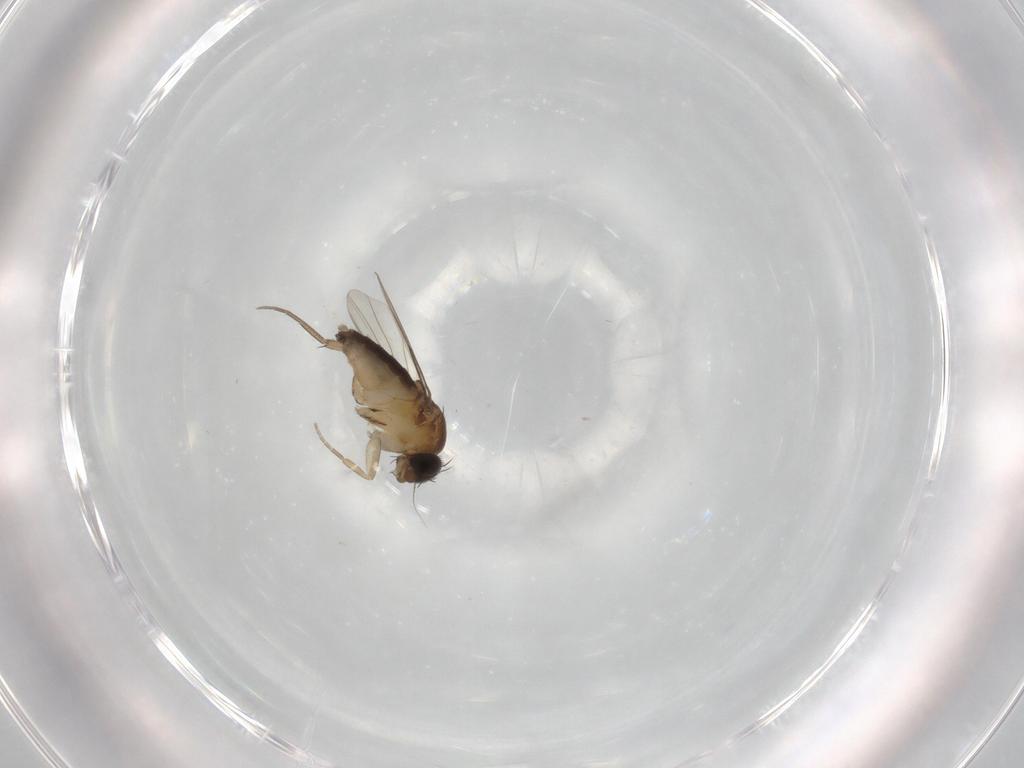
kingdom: Animalia
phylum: Arthropoda
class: Insecta
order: Diptera
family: Phoridae
